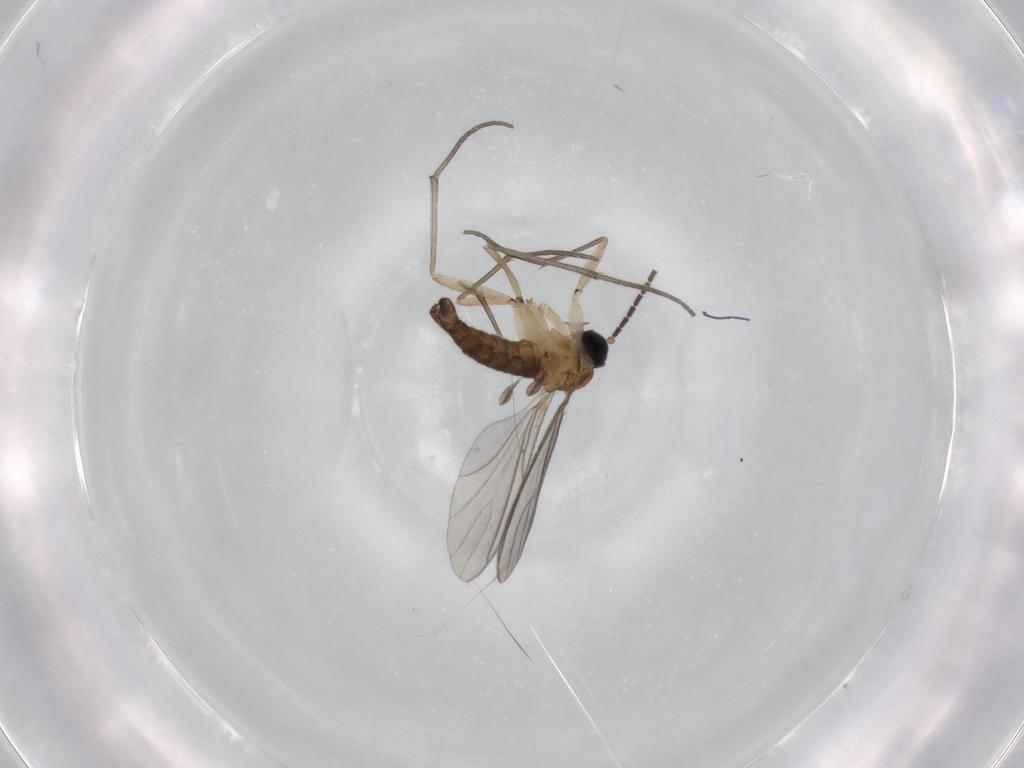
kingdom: Animalia
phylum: Arthropoda
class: Insecta
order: Diptera
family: Sciaridae
